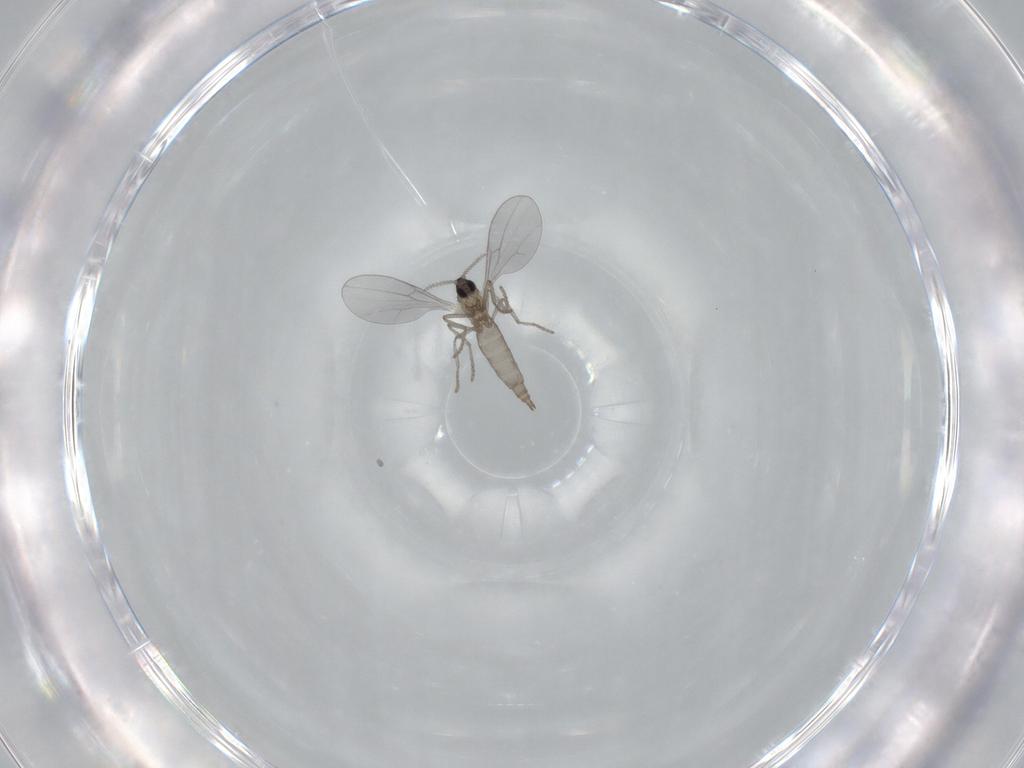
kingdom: Animalia
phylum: Arthropoda
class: Insecta
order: Diptera
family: Cecidomyiidae
